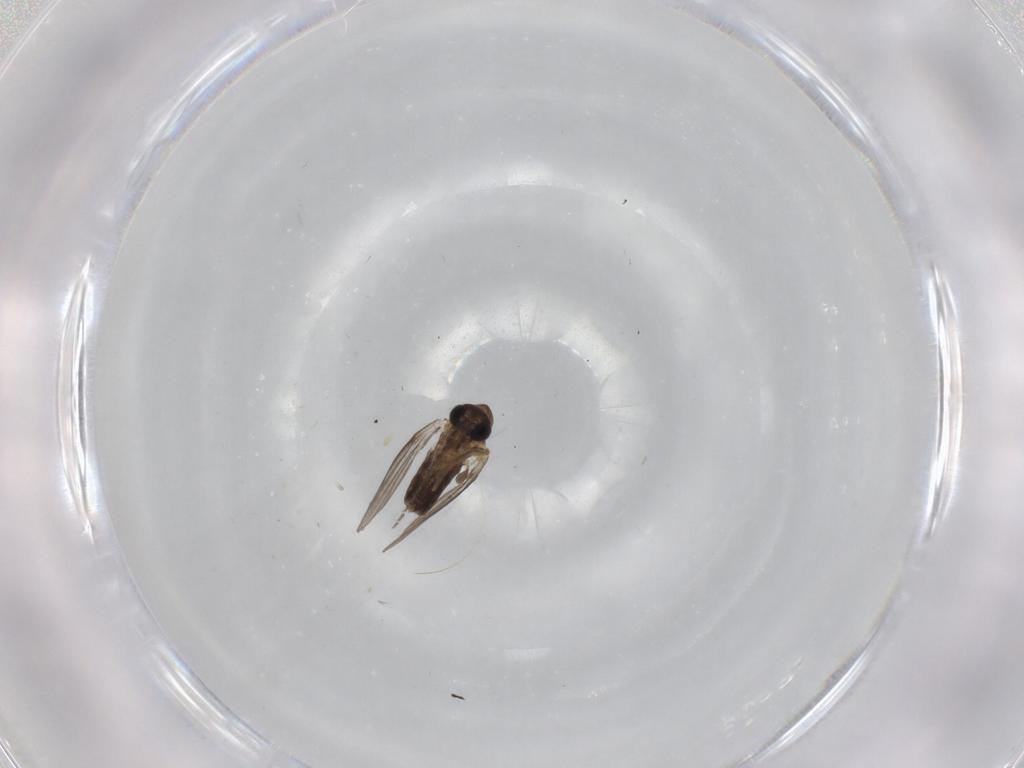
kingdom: Animalia
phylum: Arthropoda
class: Insecta
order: Diptera
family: Psychodidae
